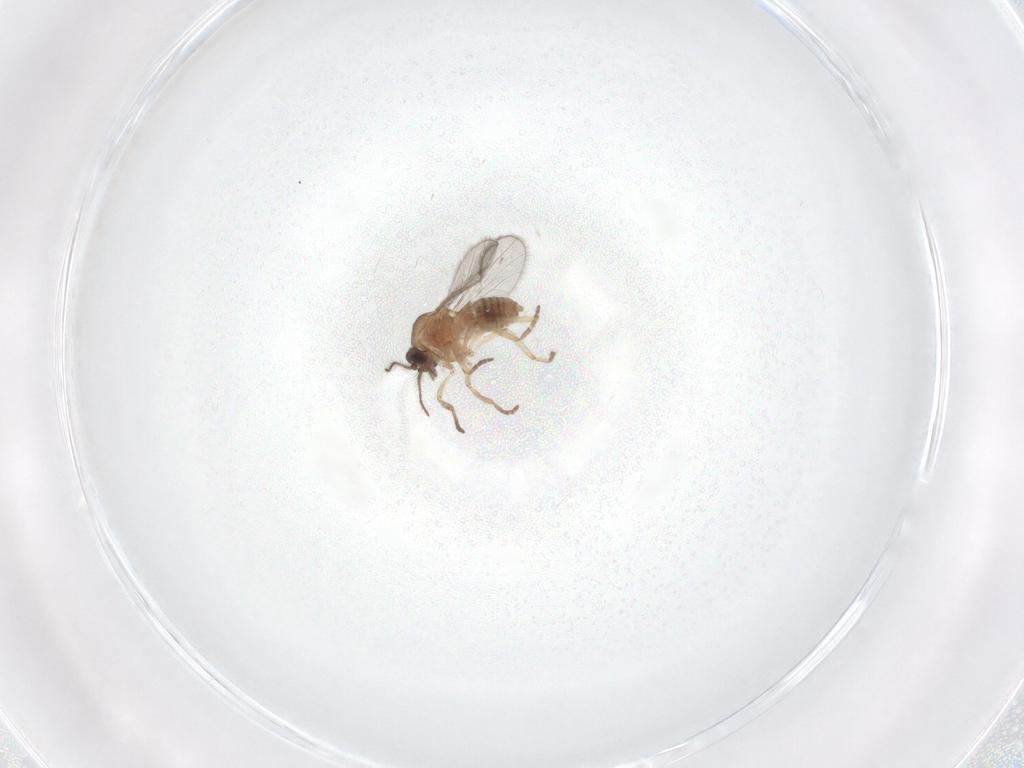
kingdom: Animalia
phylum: Arthropoda
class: Insecta
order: Diptera
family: Chironomidae
